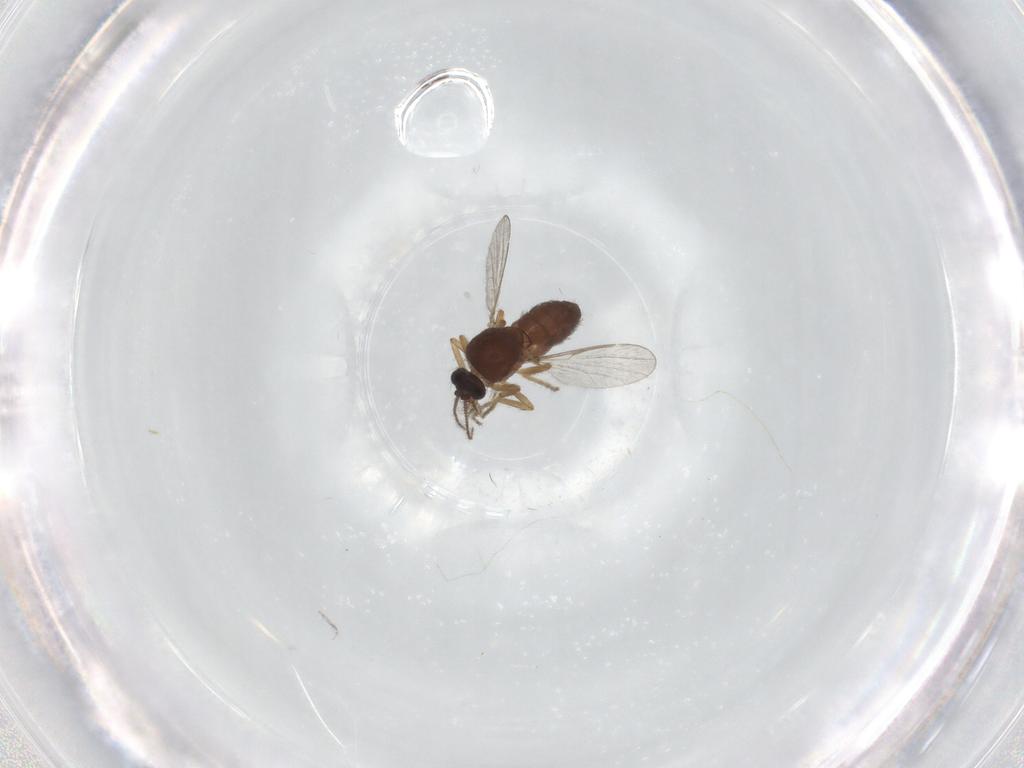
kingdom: Animalia
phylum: Arthropoda
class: Insecta
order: Diptera
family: Ceratopogonidae
